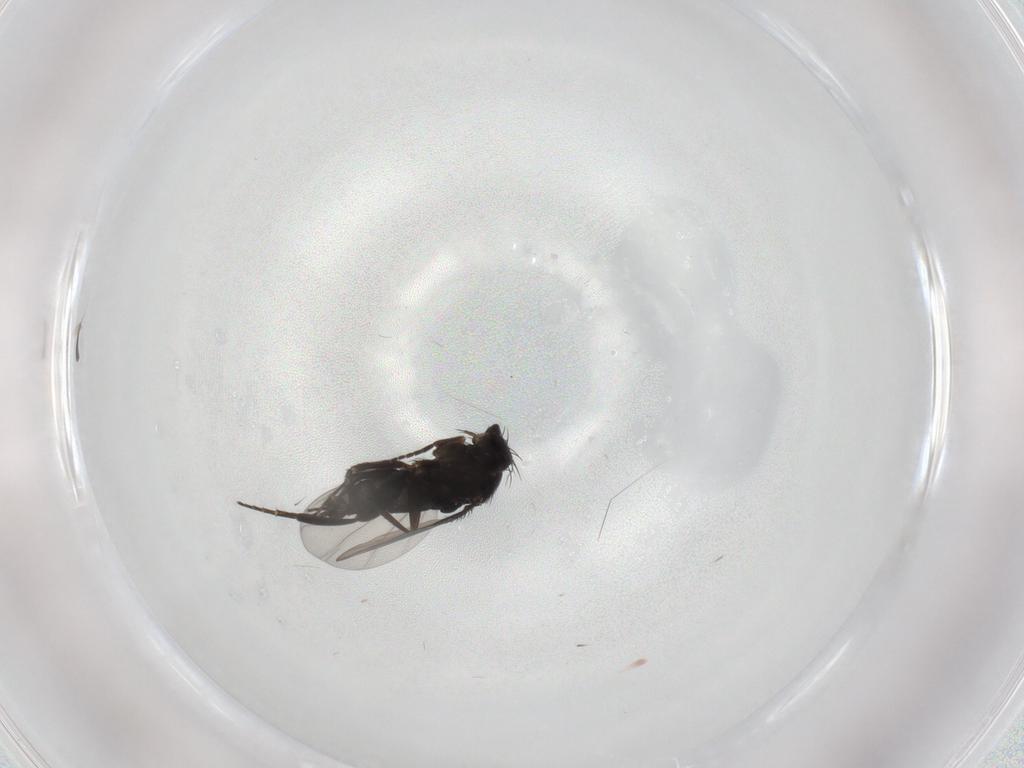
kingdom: Animalia
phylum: Arthropoda
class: Insecta
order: Diptera
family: Phoridae
